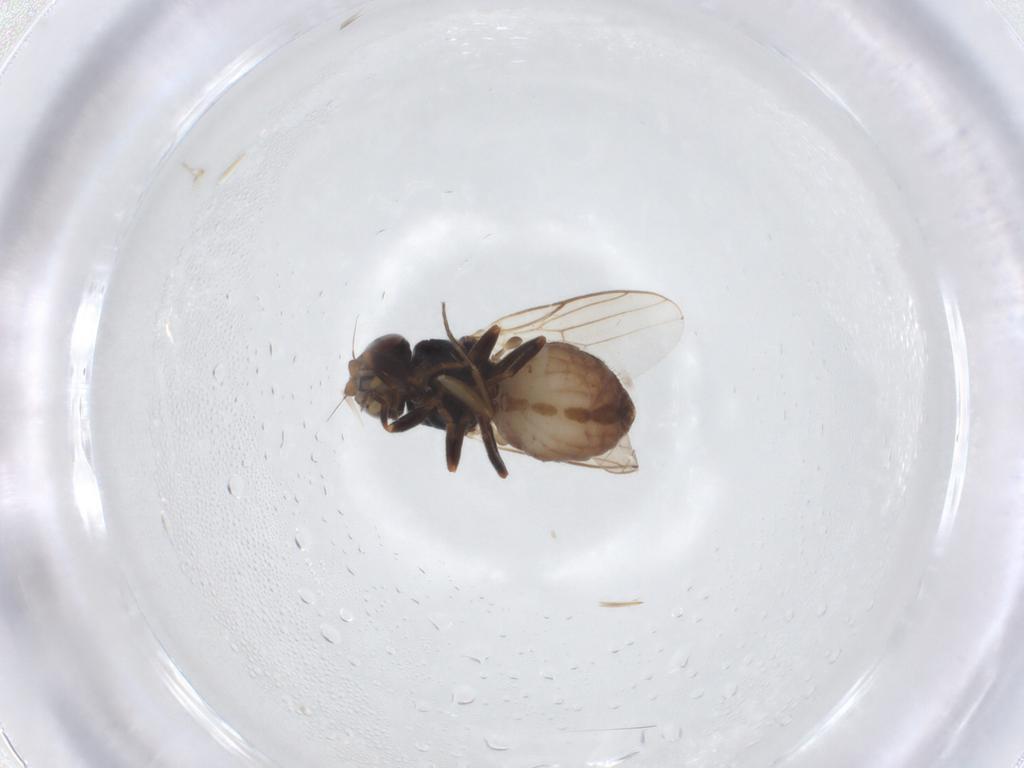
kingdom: Animalia
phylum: Arthropoda
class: Insecta
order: Diptera
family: Chloropidae
